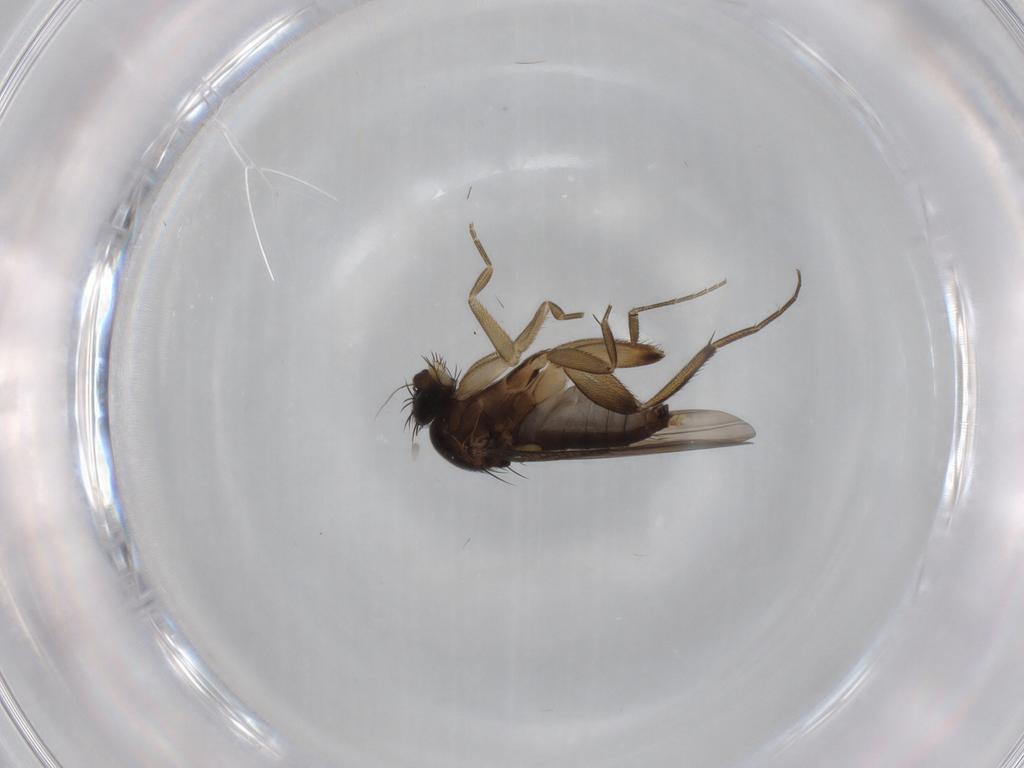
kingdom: Animalia
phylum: Arthropoda
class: Insecta
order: Diptera
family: Phoridae
